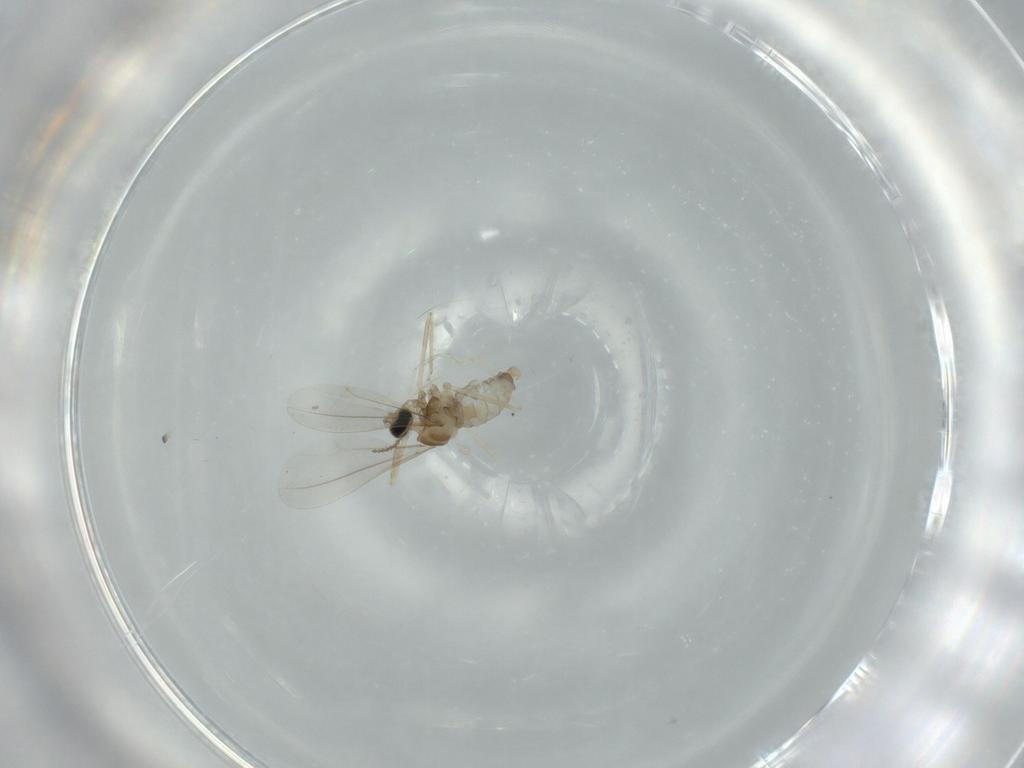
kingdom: Animalia
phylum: Arthropoda
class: Insecta
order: Diptera
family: Cecidomyiidae
